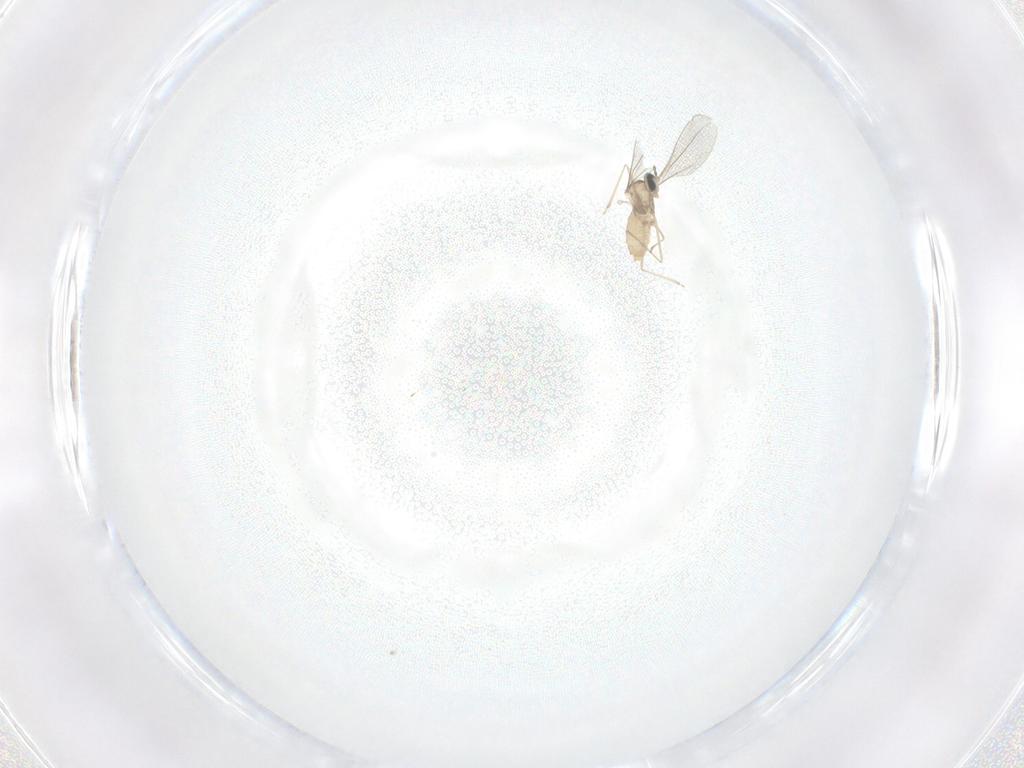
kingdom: Animalia
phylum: Arthropoda
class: Insecta
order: Diptera
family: Cecidomyiidae
